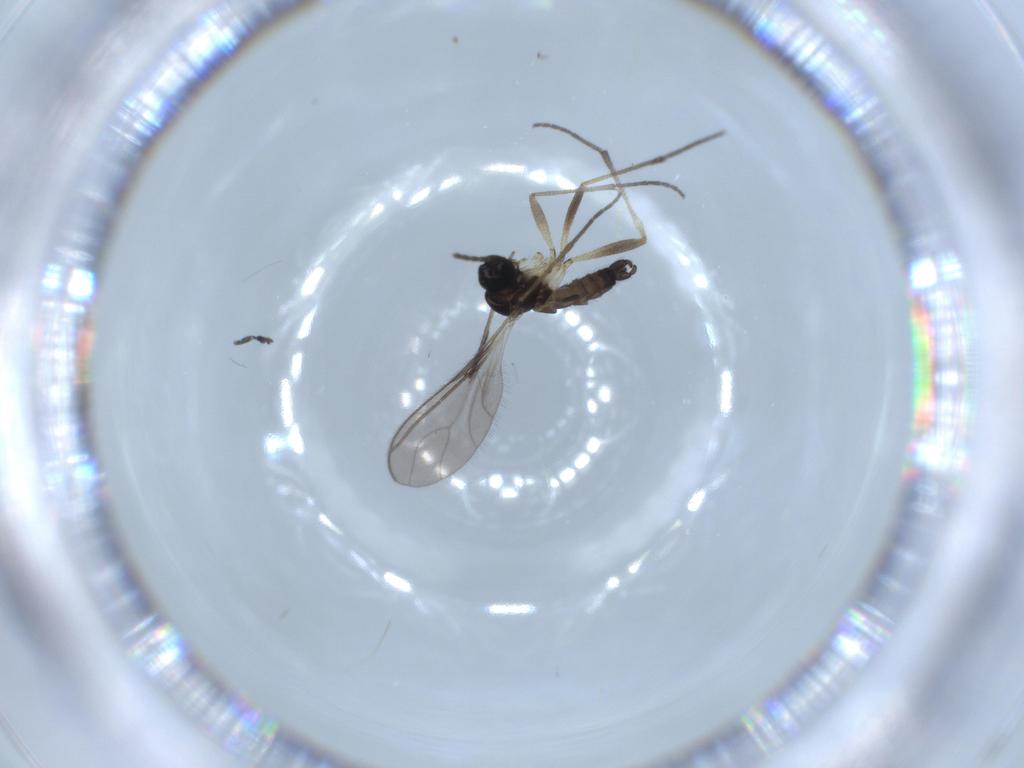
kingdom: Animalia
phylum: Arthropoda
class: Insecta
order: Diptera
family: Sciaridae
